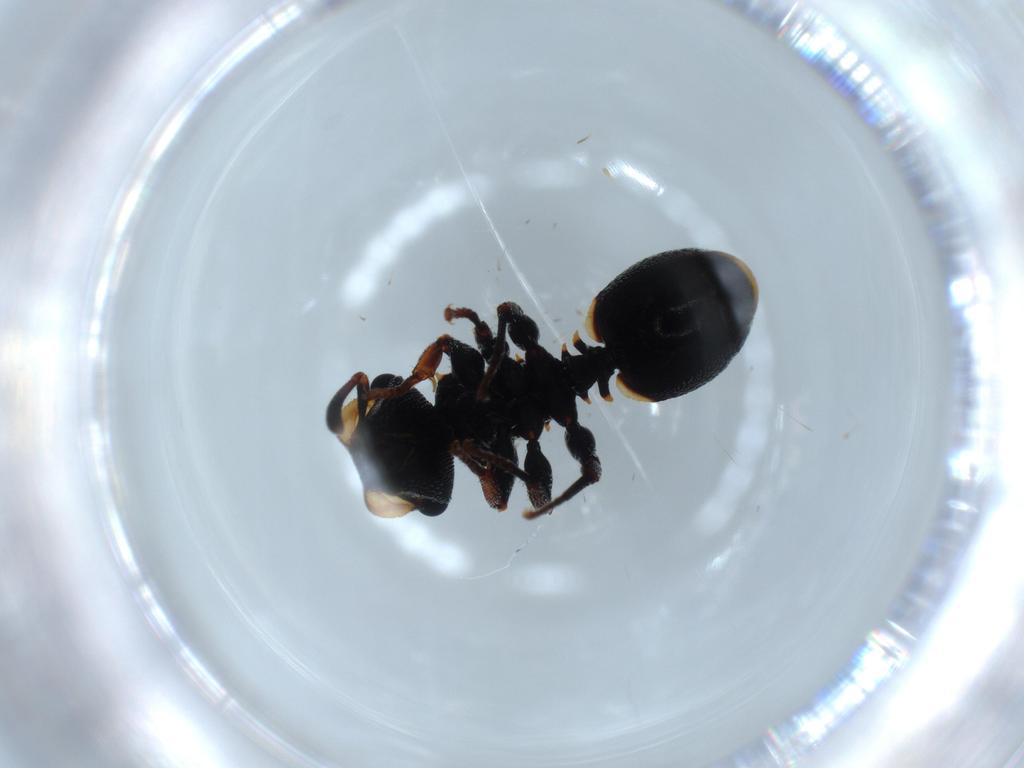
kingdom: Animalia
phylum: Arthropoda
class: Insecta
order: Hymenoptera
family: Formicidae
